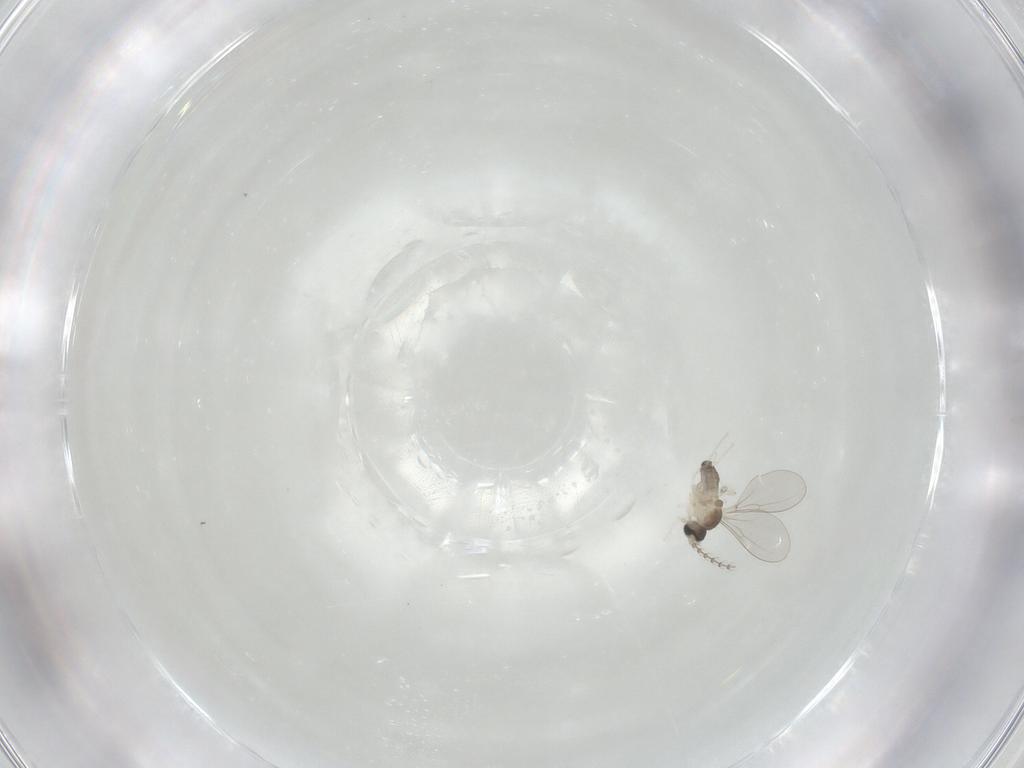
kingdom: Animalia
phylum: Arthropoda
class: Insecta
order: Diptera
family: Cecidomyiidae
